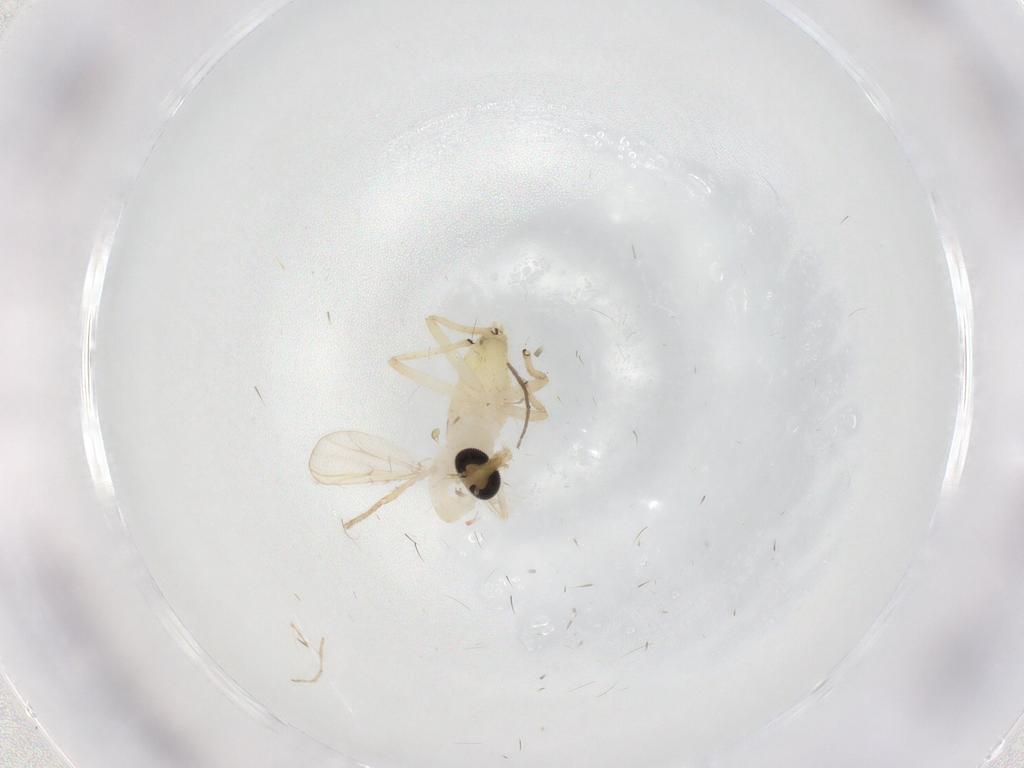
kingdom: Animalia
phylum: Arthropoda
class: Insecta
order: Diptera
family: Chironomidae
